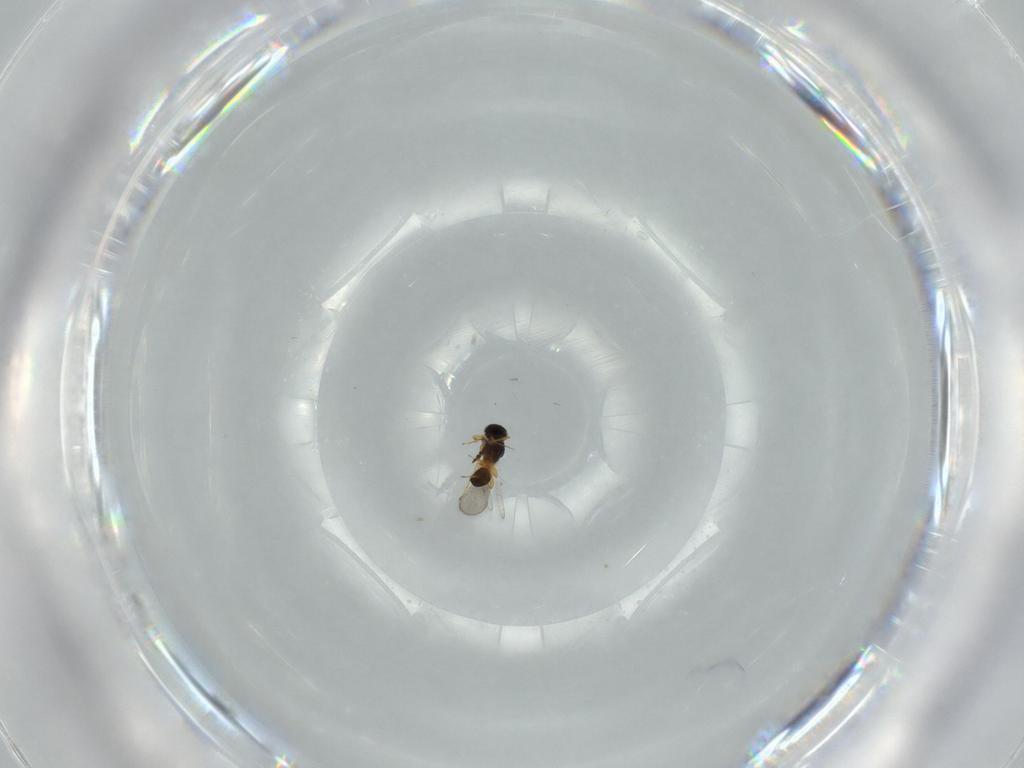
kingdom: Animalia
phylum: Arthropoda
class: Insecta
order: Hymenoptera
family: Platygastridae
